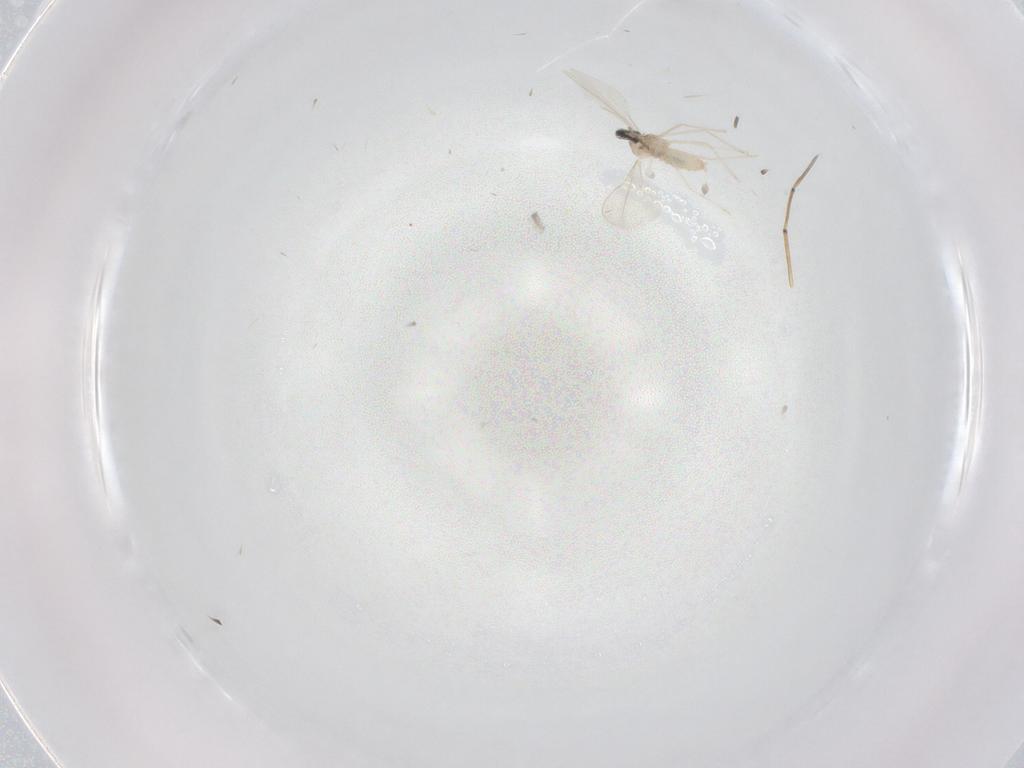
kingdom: Animalia
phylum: Arthropoda
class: Insecta
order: Diptera
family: Cecidomyiidae
